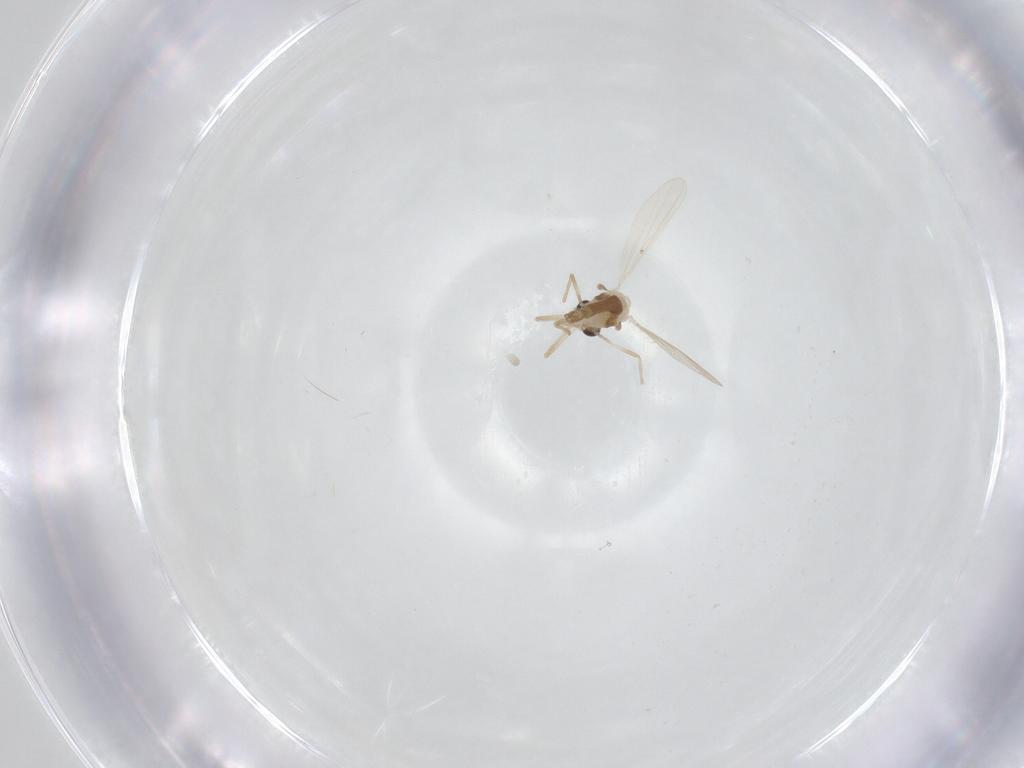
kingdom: Animalia
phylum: Arthropoda
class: Insecta
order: Diptera
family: Chironomidae
